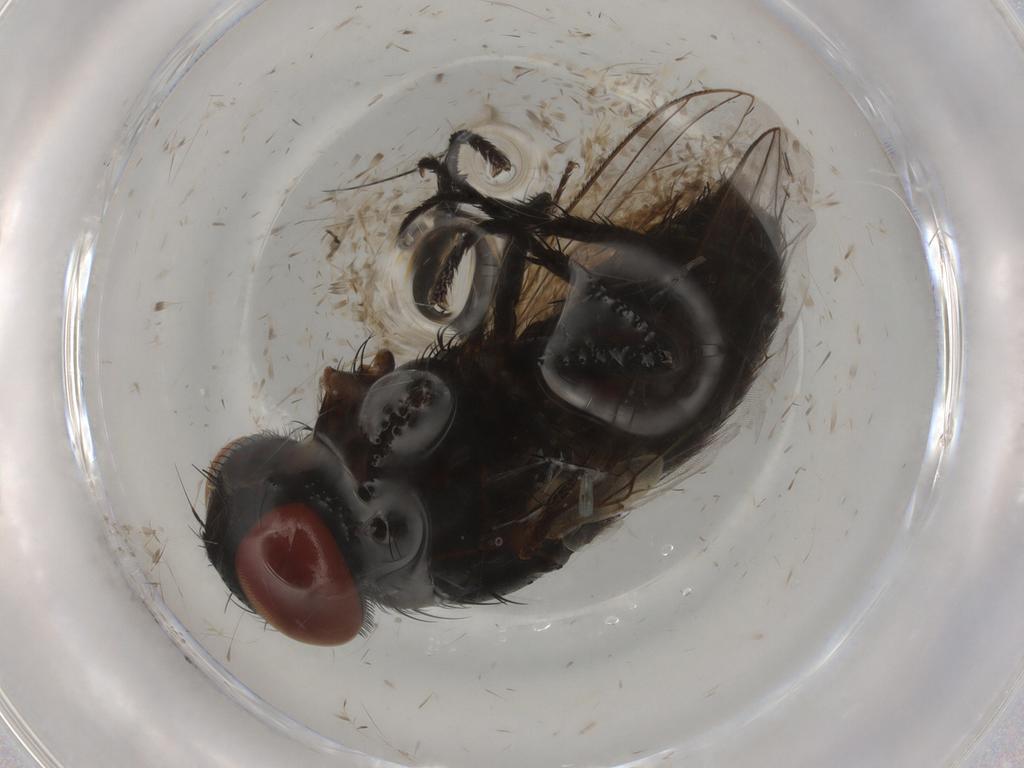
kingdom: Animalia
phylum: Arthropoda
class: Insecta
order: Diptera
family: Sarcophagidae
